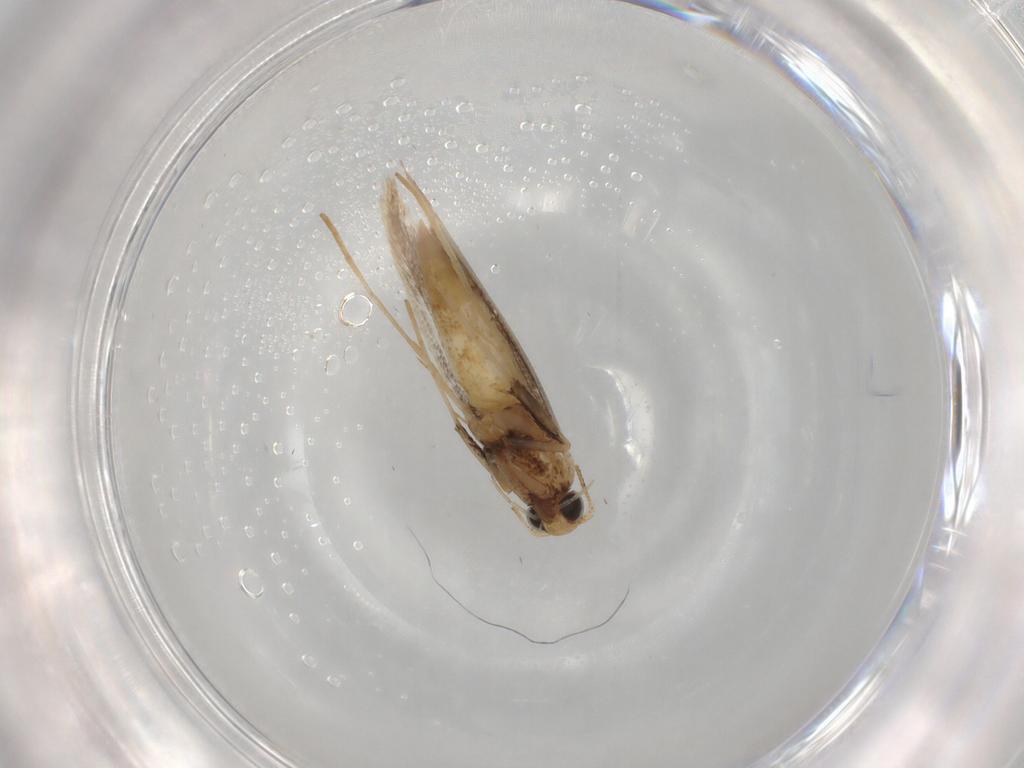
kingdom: Animalia
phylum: Arthropoda
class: Insecta
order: Lepidoptera
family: Gracillariidae
